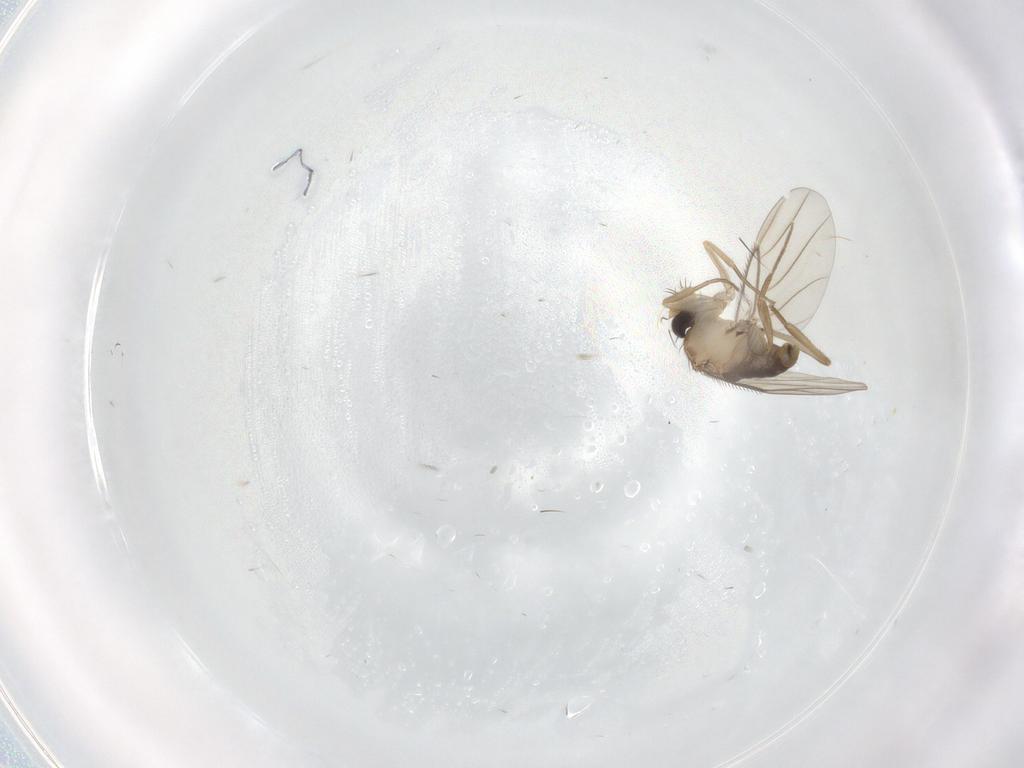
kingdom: Animalia
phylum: Arthropoda
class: Insecta
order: Diptera
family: Phoridae
